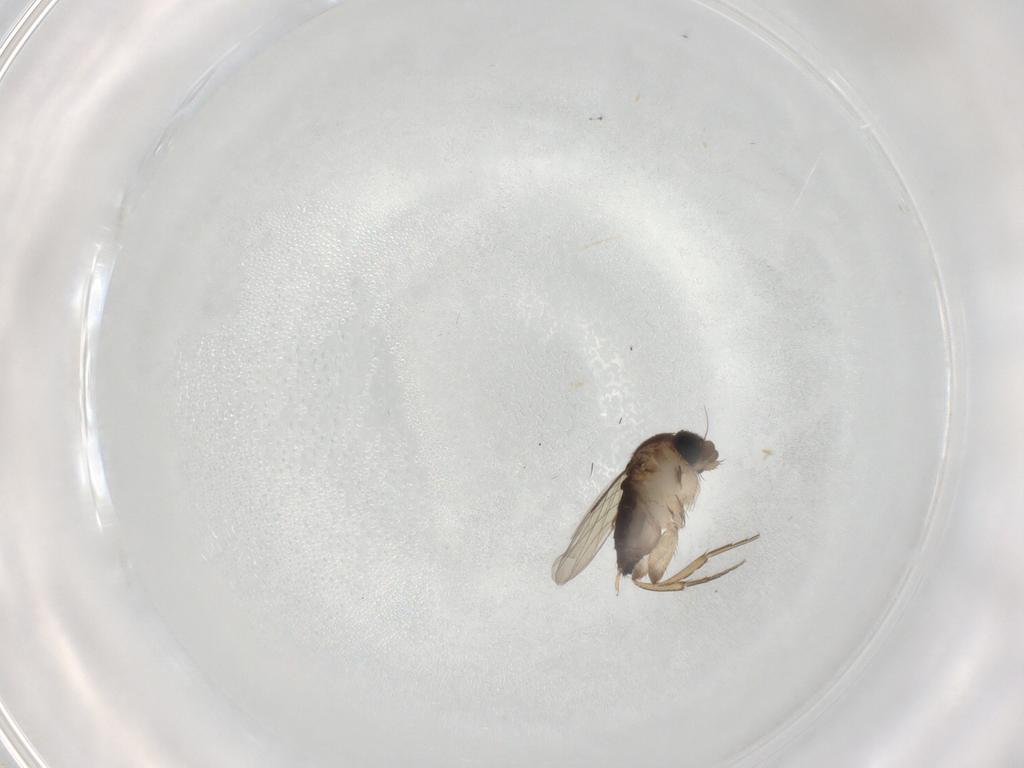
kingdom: Animalia
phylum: Arthropoda
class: Insecta
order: Diptera
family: Phoridae
